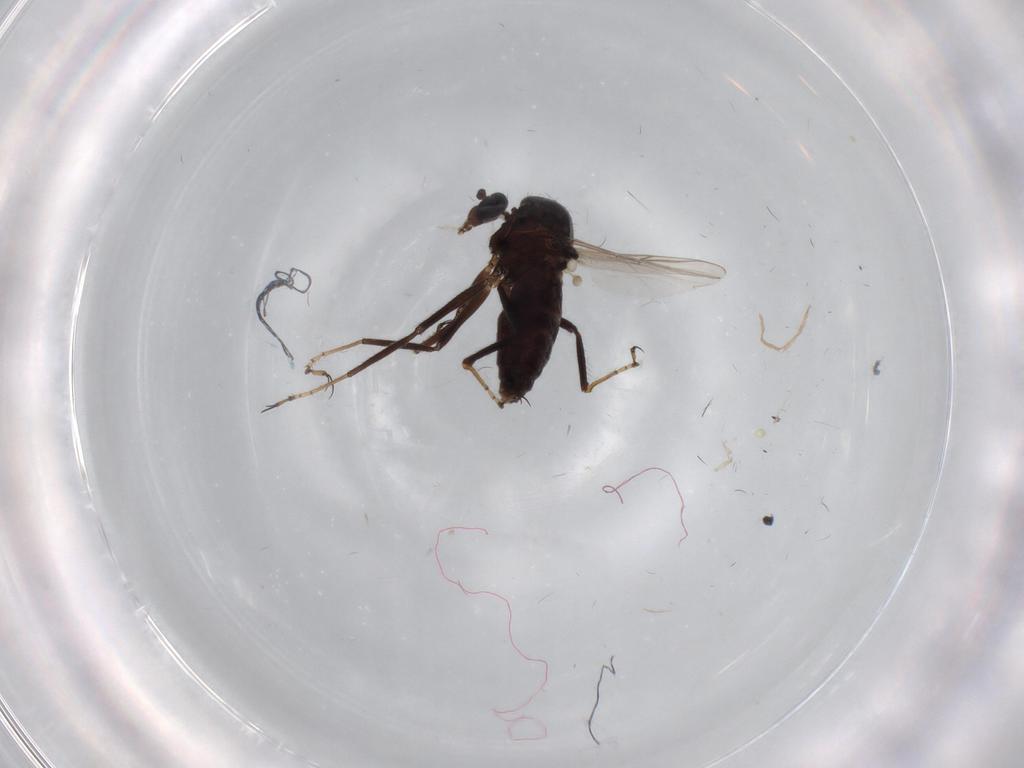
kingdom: Animalia
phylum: Arthropoda
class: Insecta
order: Diptera
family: Ceratopogonidae
